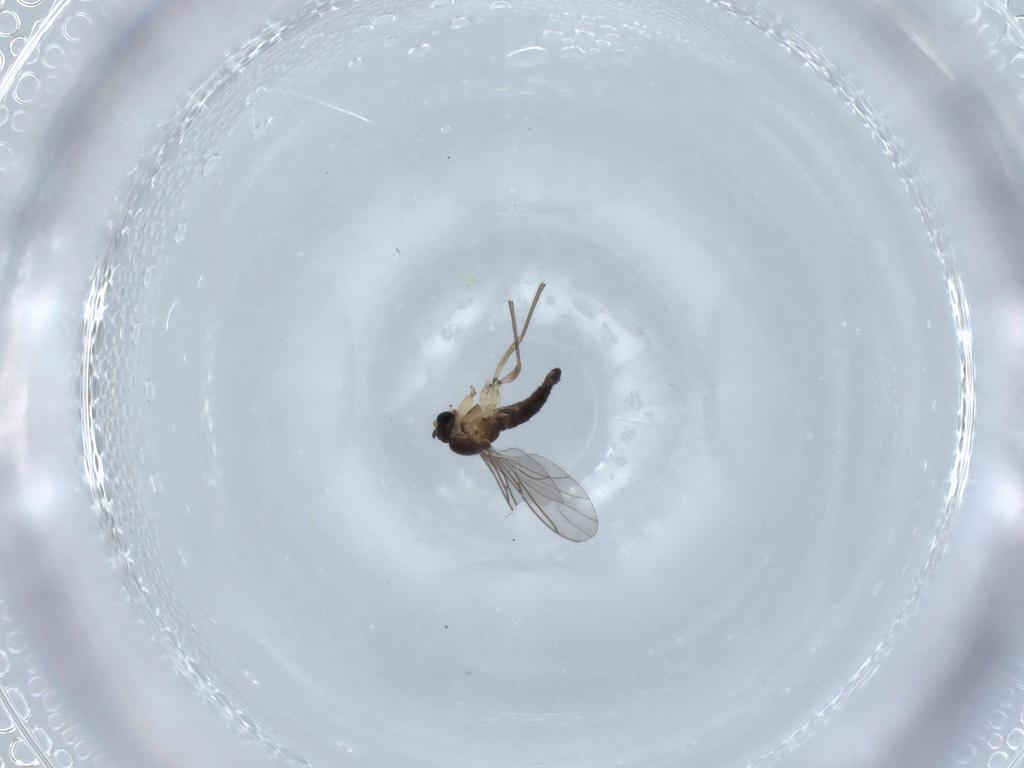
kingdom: Animalia
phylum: Arthropoda
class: Insecta
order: Diptera
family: Sciaridae
